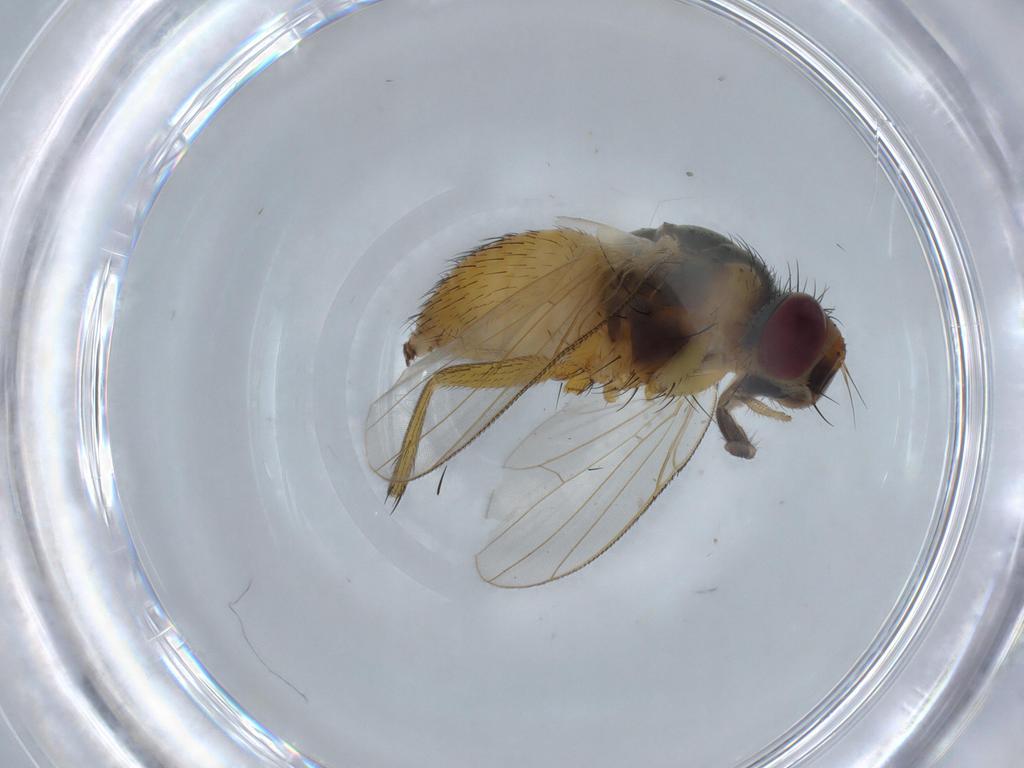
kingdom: Animalia
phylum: Arthropoda
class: Insecta
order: Diptera
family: Muscidae
